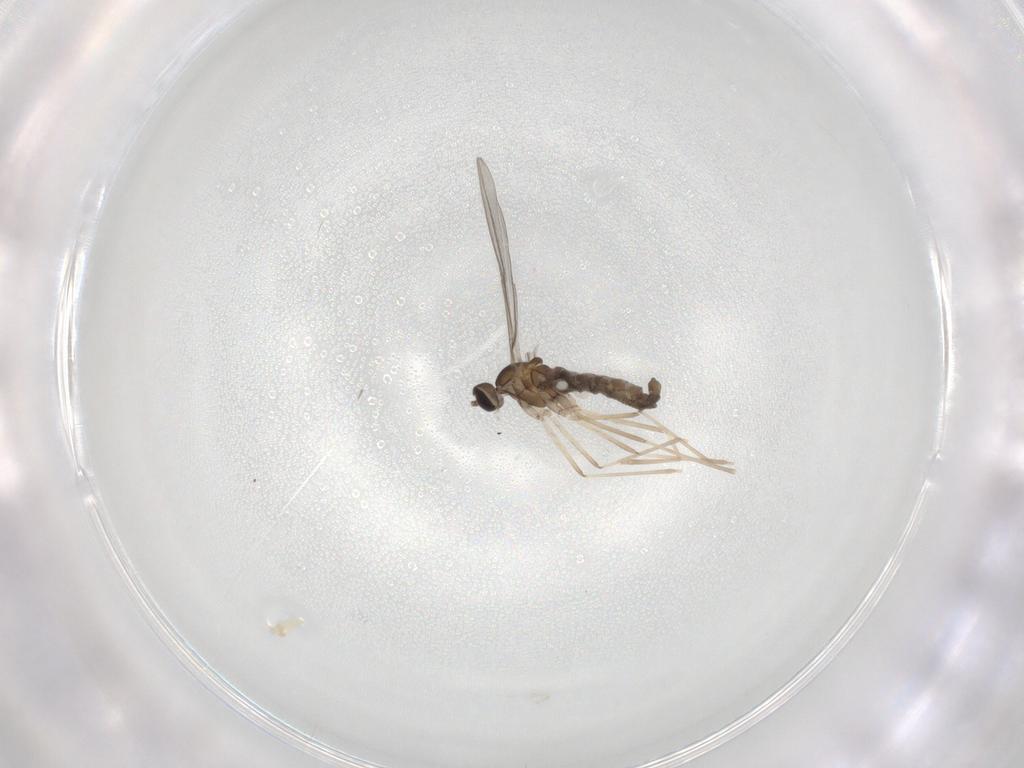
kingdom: Animalia
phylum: Arthropoda
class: Insecta
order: Diptera
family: Cecidomyiidae
